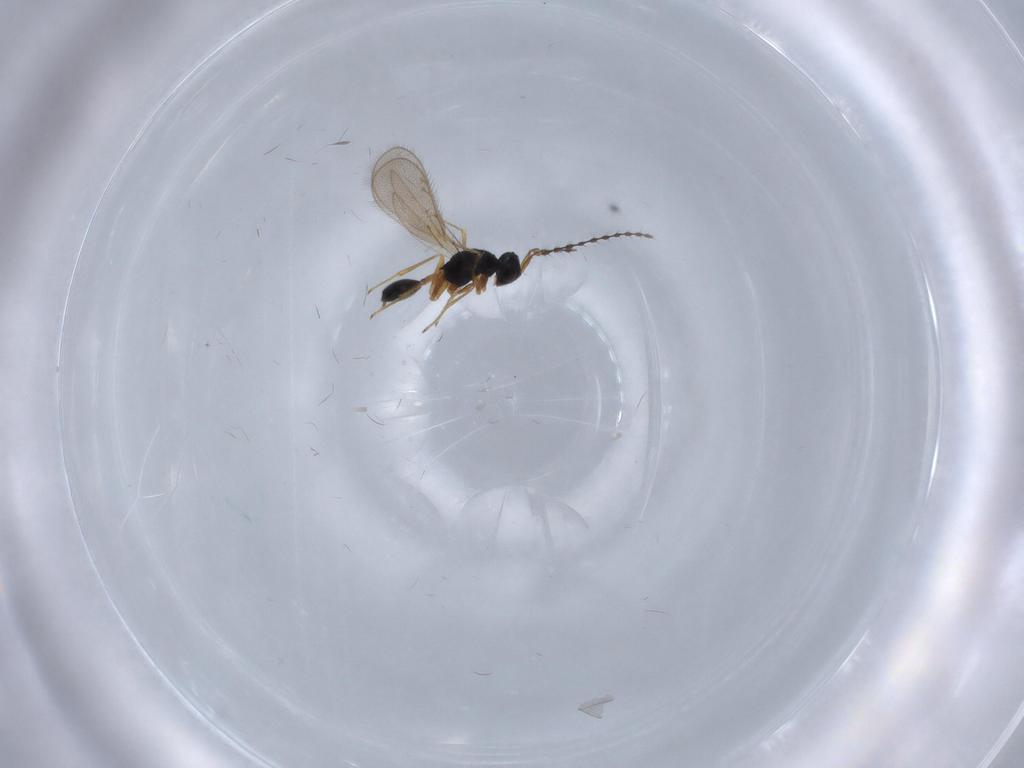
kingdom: Animalia
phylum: Arthropoda
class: Insecta
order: Hymenoptera
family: Diparidae
